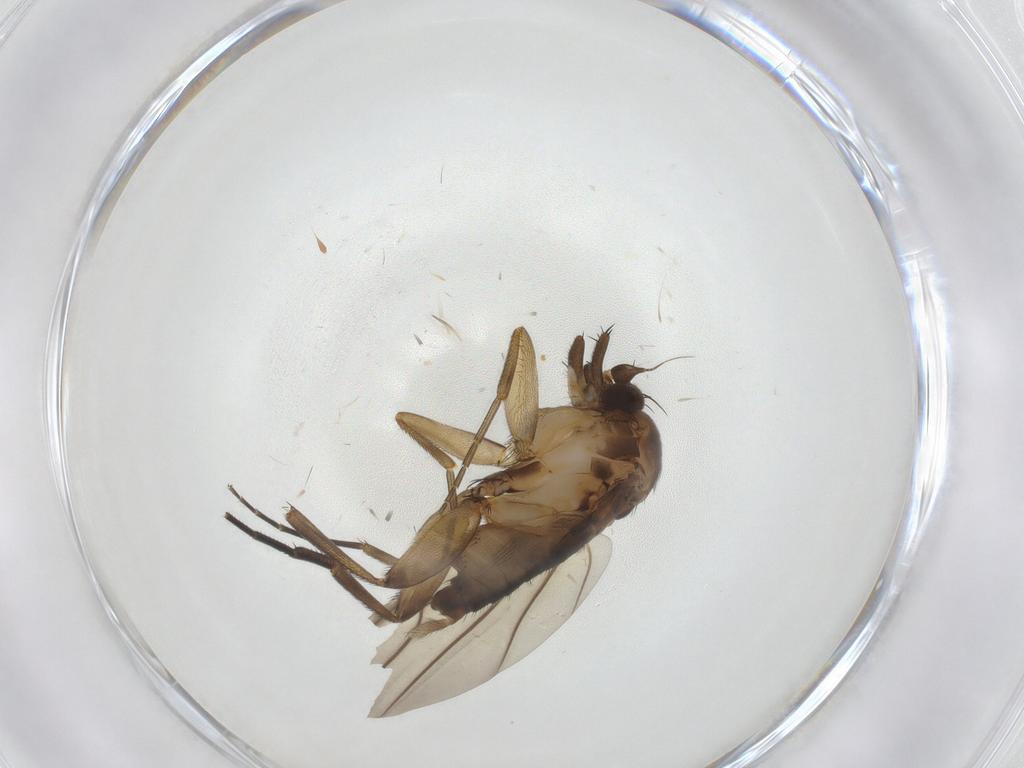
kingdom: Animalia
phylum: Arthropoda
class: Insecta
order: Diptera
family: Phoridae
